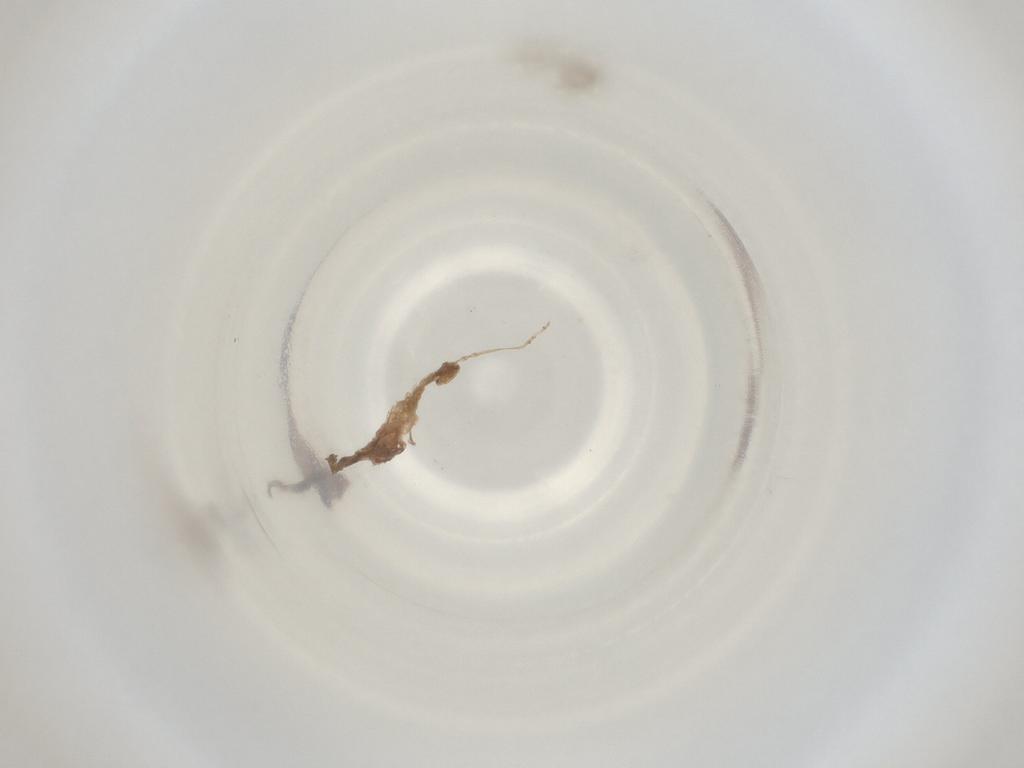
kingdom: Animalia
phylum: Arthropoda
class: Insecta
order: Diptera
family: Cecidomyiidae
